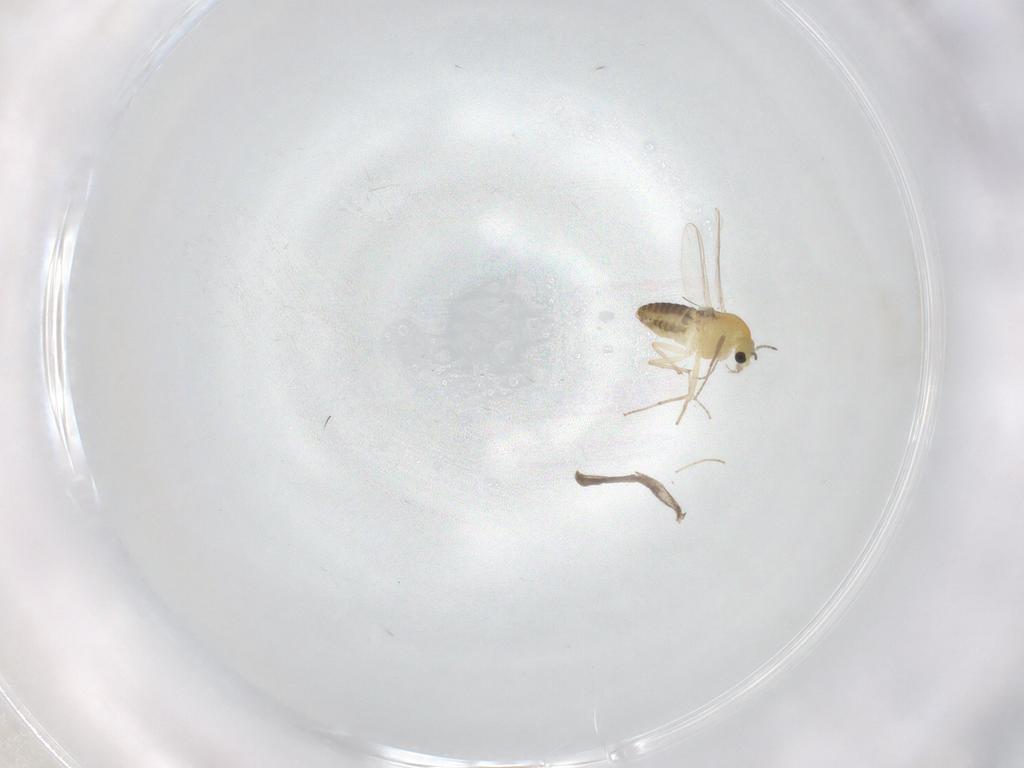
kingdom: Animalia
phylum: Arthropoda
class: Insecta
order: Diptera
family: Chironomidae
